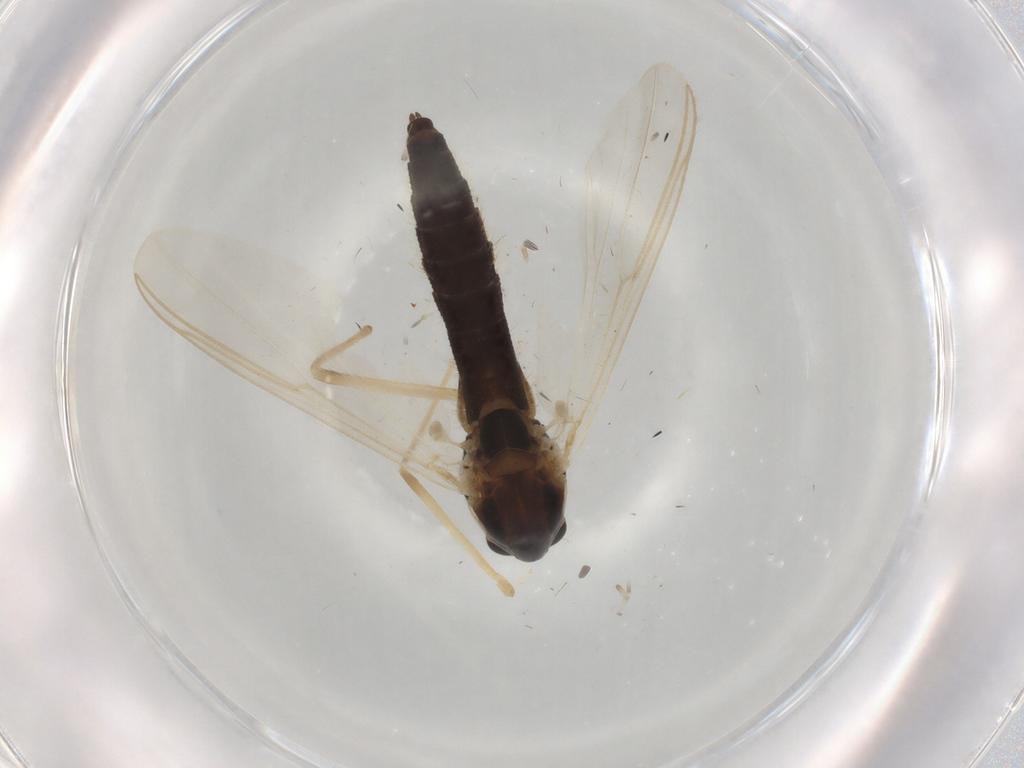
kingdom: Animalia
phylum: Arthropoda
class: Insecta
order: Diptera
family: Chironomidae
